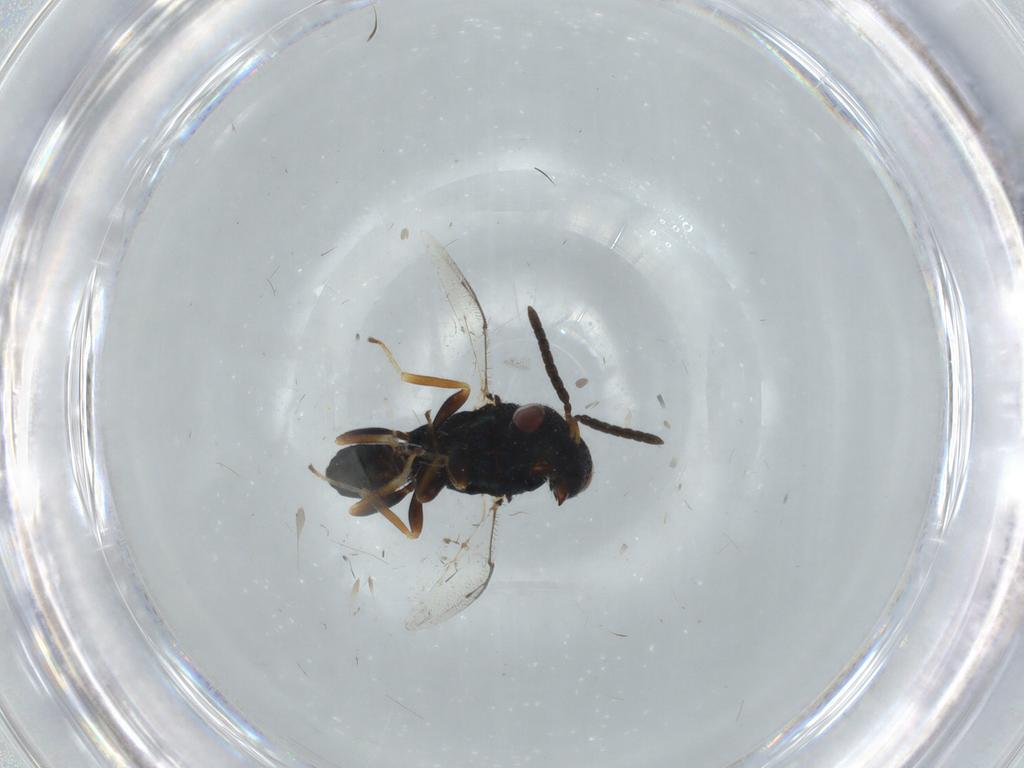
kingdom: Animalia
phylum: Arthropoda
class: Insecta
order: Hymenoptera
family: Pteromalidae
